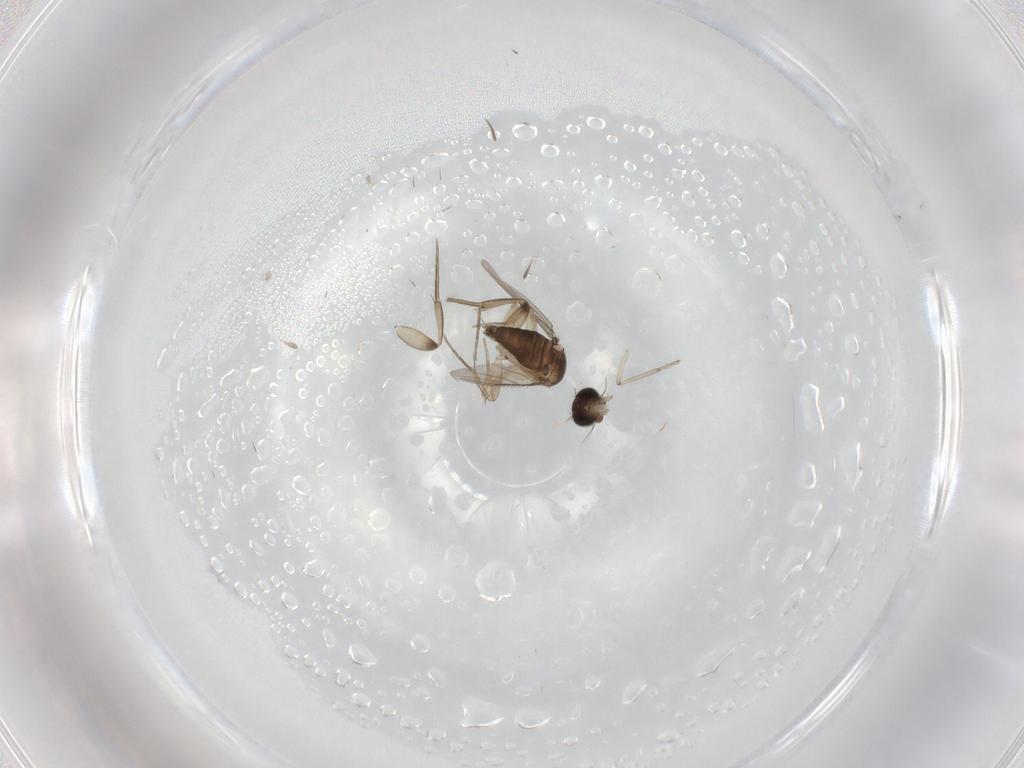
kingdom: Animalia
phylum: Arthropoda
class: Insecta
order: Diptera
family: Phoridae
